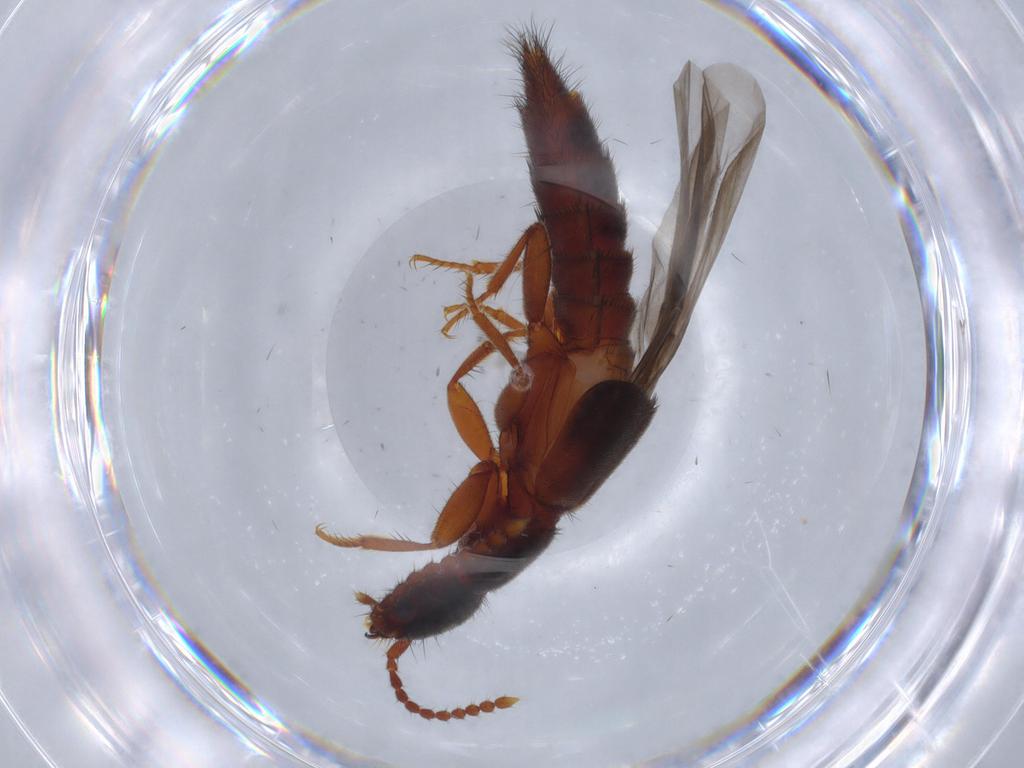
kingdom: Animalia
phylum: Arthropoda
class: Insecta
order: Coleoptera
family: Staphylinidae
